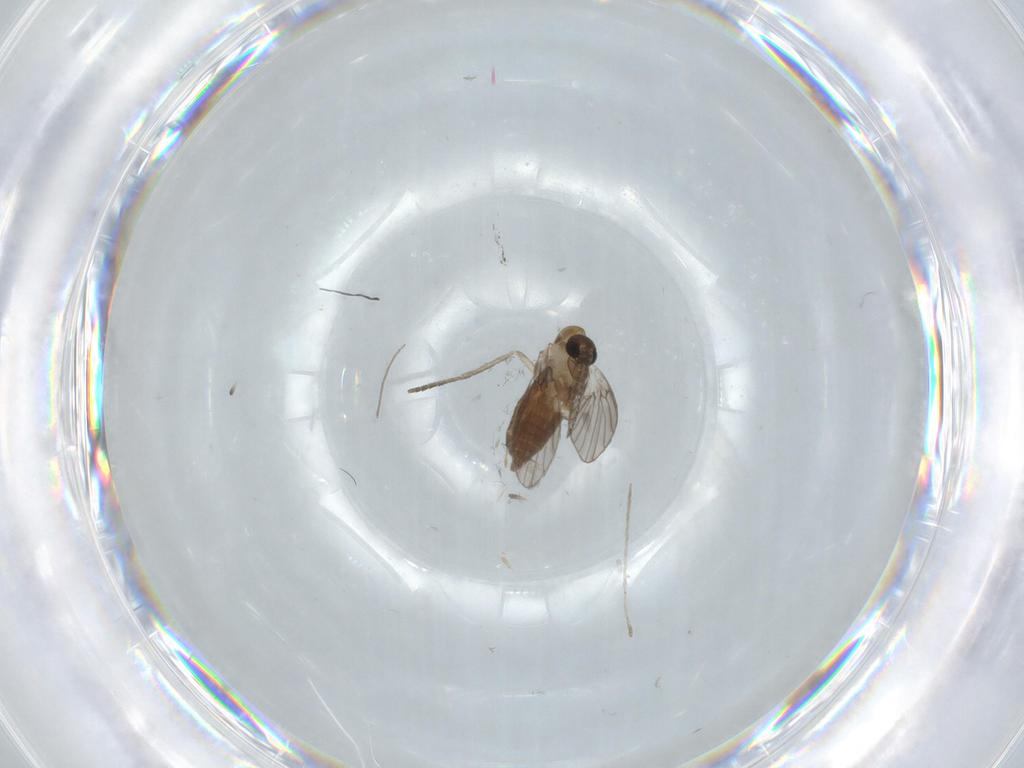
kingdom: Animalia
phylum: Arthropoda
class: Insecta
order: Diptera
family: Chironomidae
